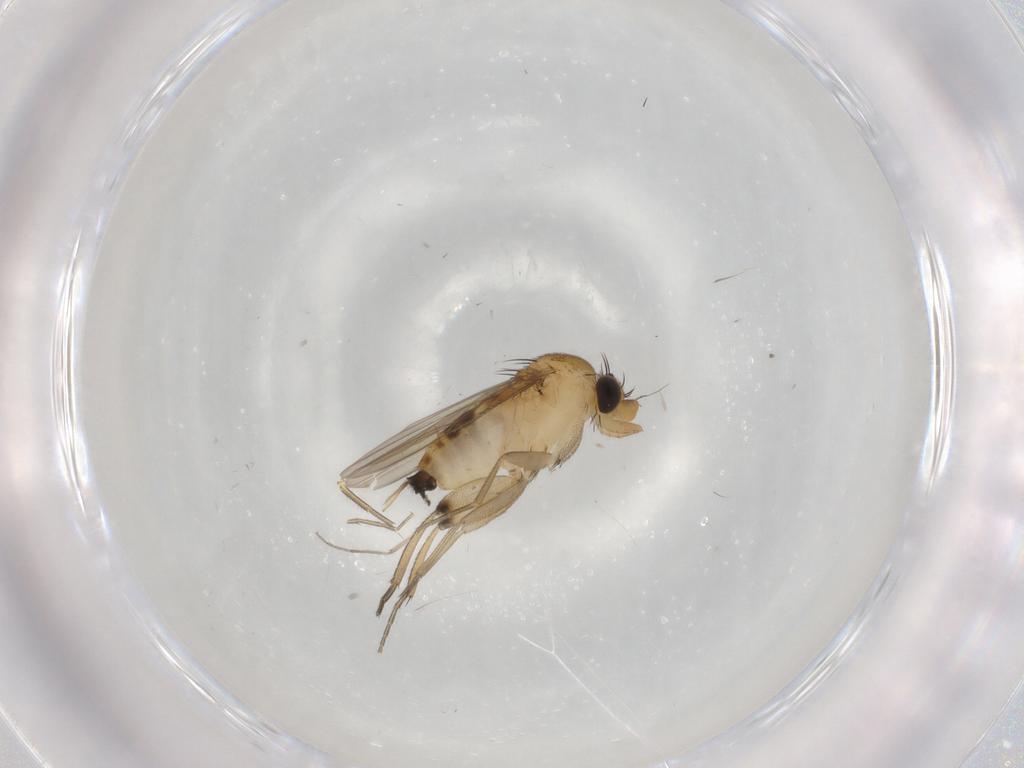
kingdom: Animalia
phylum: Arthropoda
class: Insecta
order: Diptera
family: Phoridae
